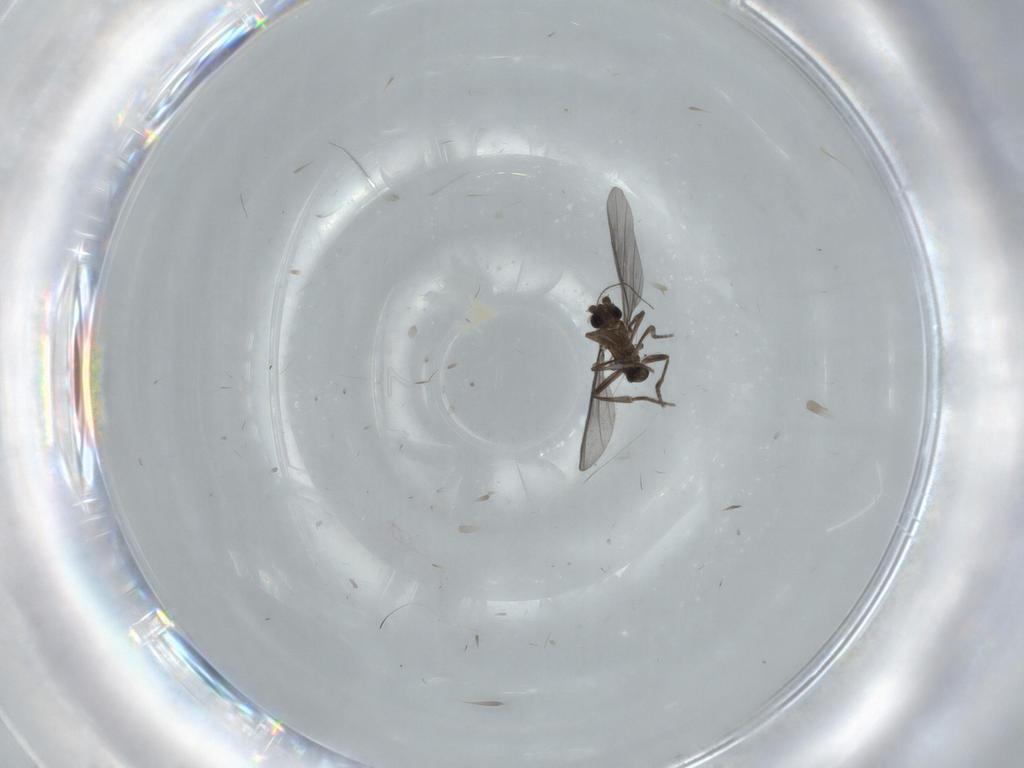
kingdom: Animalia
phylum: Arthropoda
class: Insecta
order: Diptera
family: Phoridae
